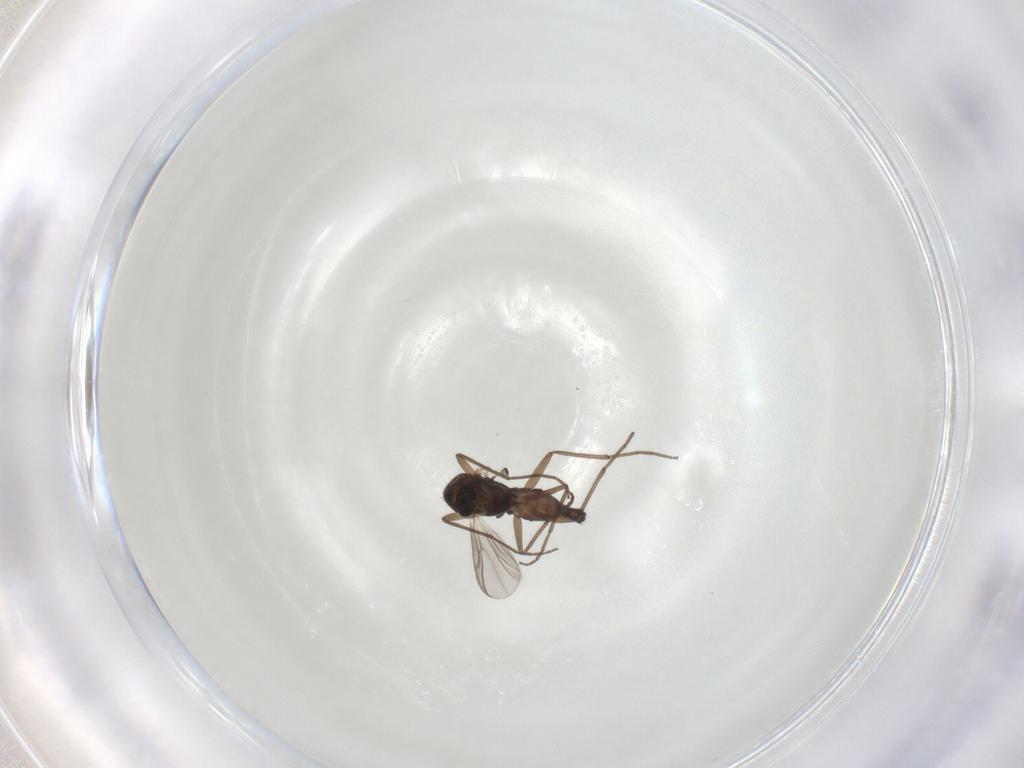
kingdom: Animalia
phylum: Arthropoda
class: Insecta
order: Diptera
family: Chironomidae
